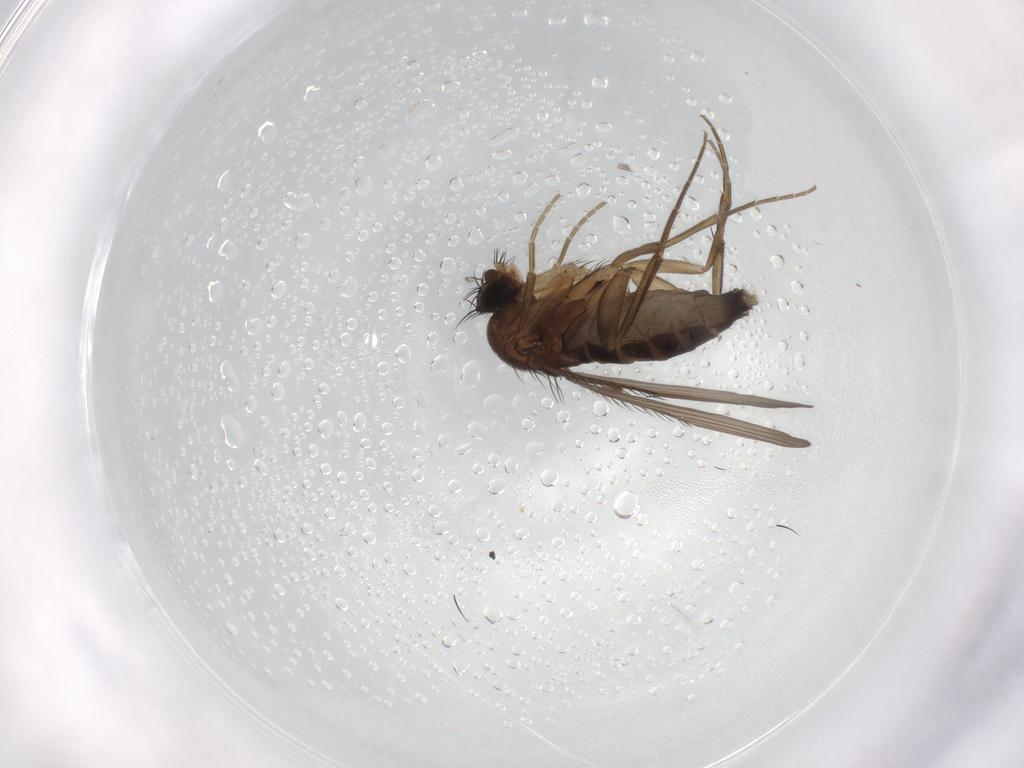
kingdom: Animalia
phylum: Arthropoda
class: Insecta
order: Diptera
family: Phoridae
